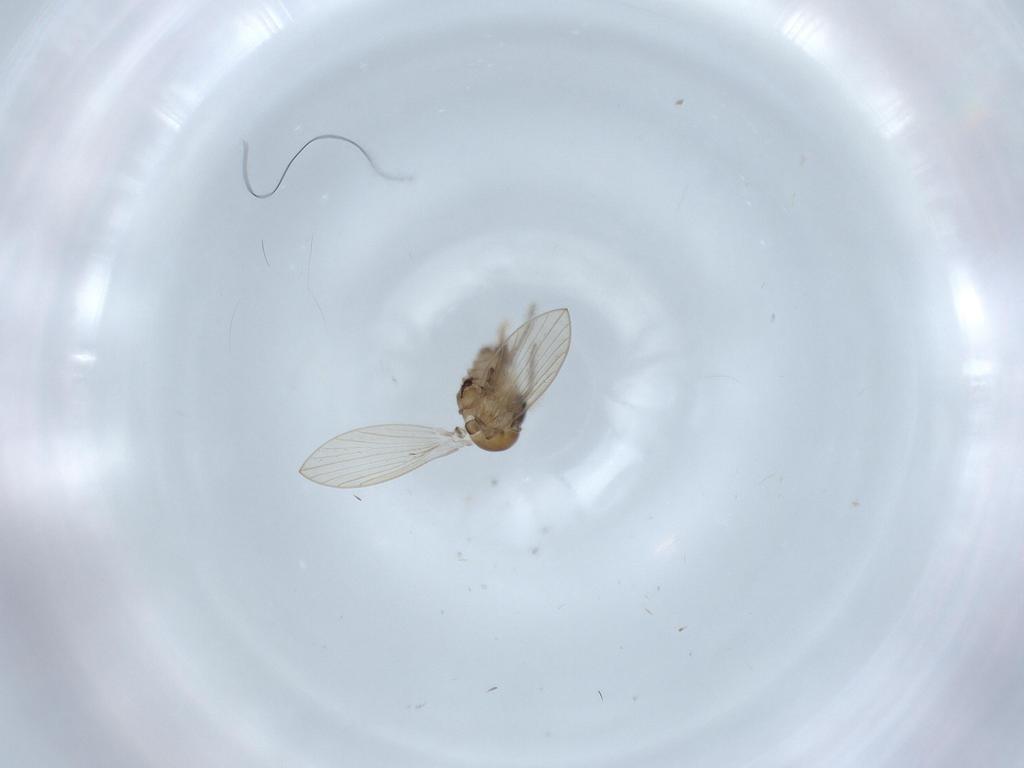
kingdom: Animalia
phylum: Arthropoda
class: Insecta
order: Diptera
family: Psychodidae
